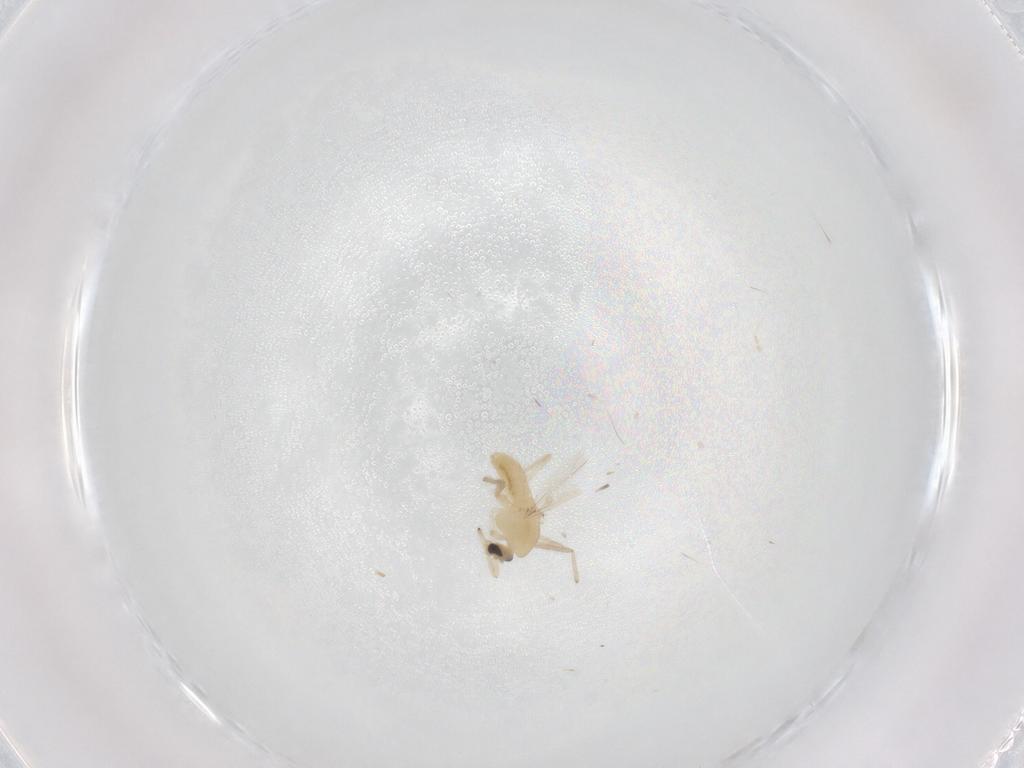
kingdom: Animalia
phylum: Arthropoda
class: Insecta
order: Diptera
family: Chironomidae
